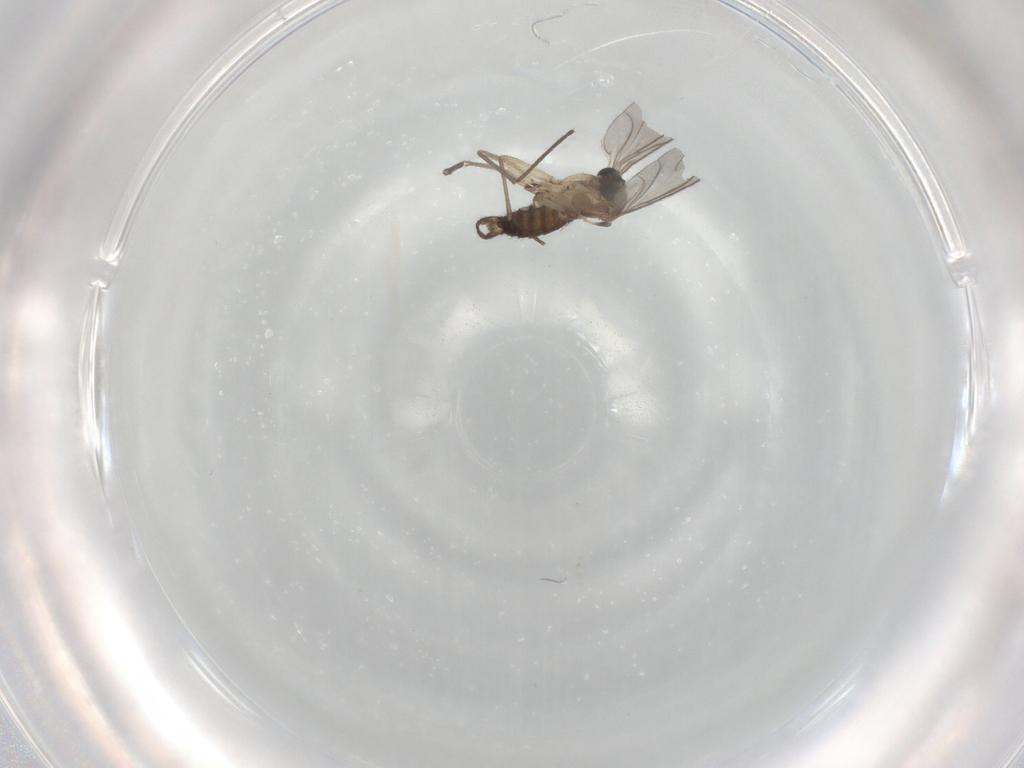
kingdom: Animalia
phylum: Arthropoda
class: Insecta
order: Diptera
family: Sciaridae
